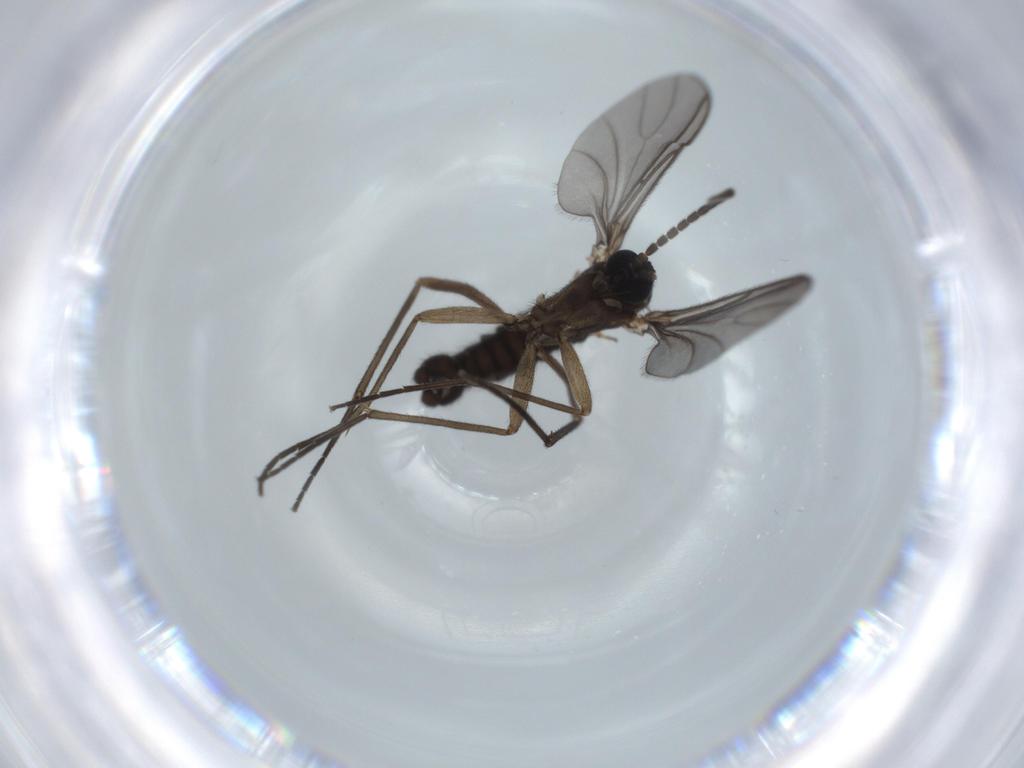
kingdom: Animalia
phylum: Arthropoda
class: Insecta
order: Diptera
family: Sciaridae
